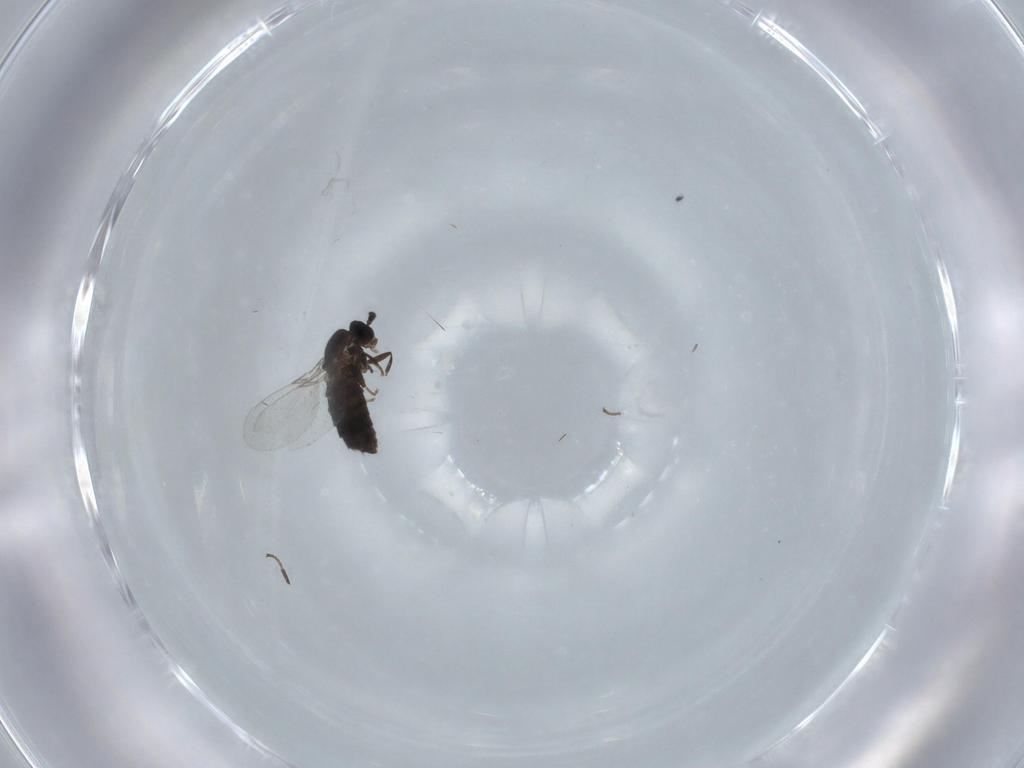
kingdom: Animalia
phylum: Arthropoda
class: Insecta
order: Diptera
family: Scatopsidae
